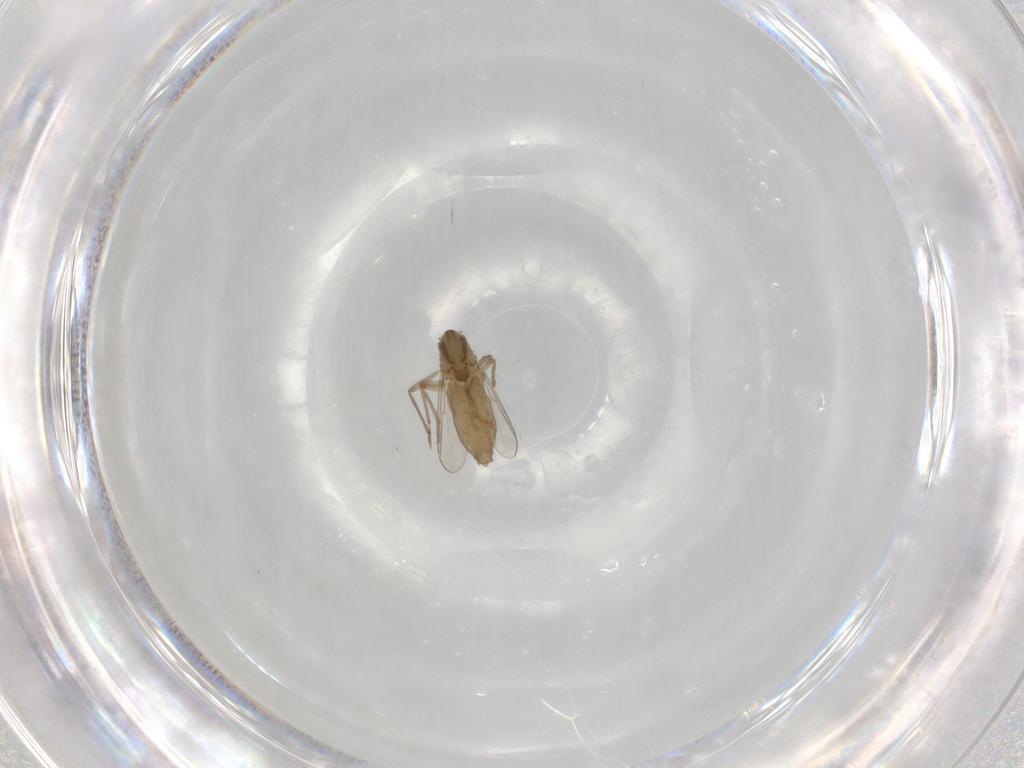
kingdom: Animalia
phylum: Arthropoda
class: Insecta
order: Diptera
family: Chironomidae
